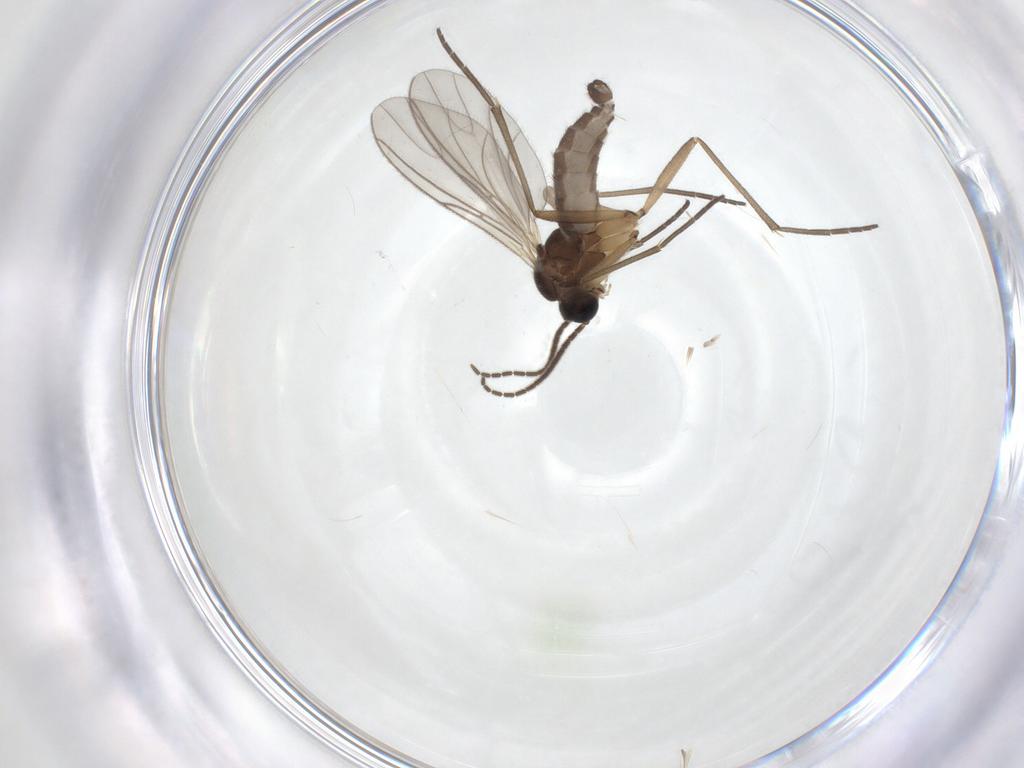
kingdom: Animalia
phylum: Arthropoda
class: Insecta
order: Diptera
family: Sciaridae
